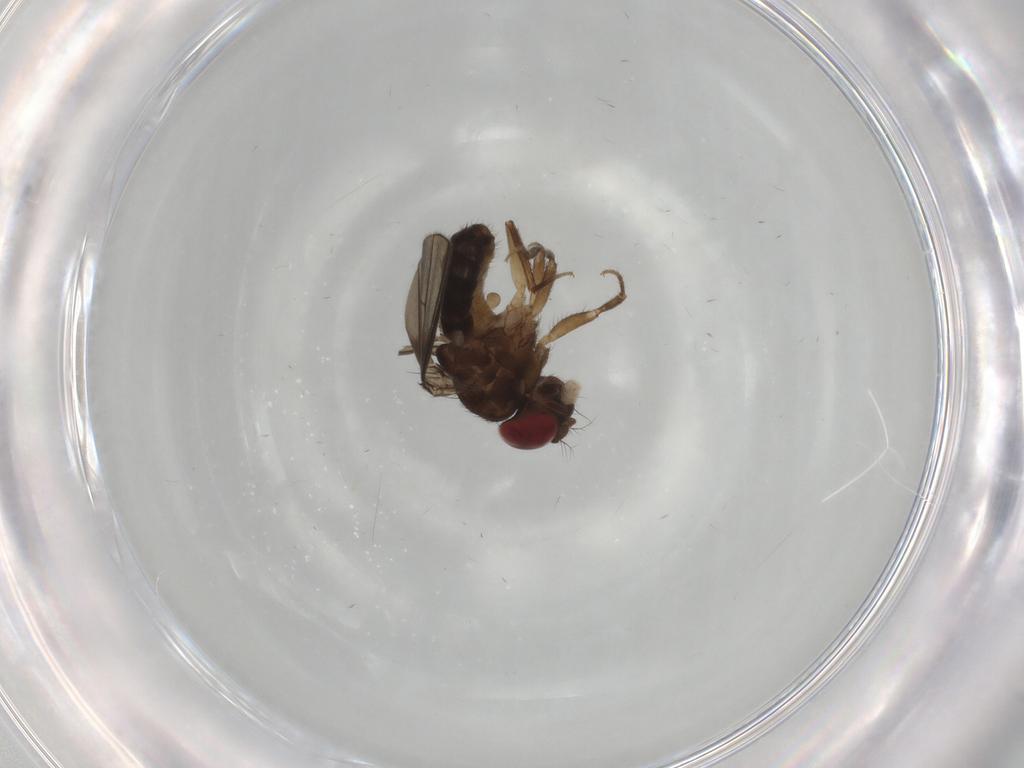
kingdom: Animalia
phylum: Arthropoda
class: Insecta
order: Diptera
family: Drosophilidae
